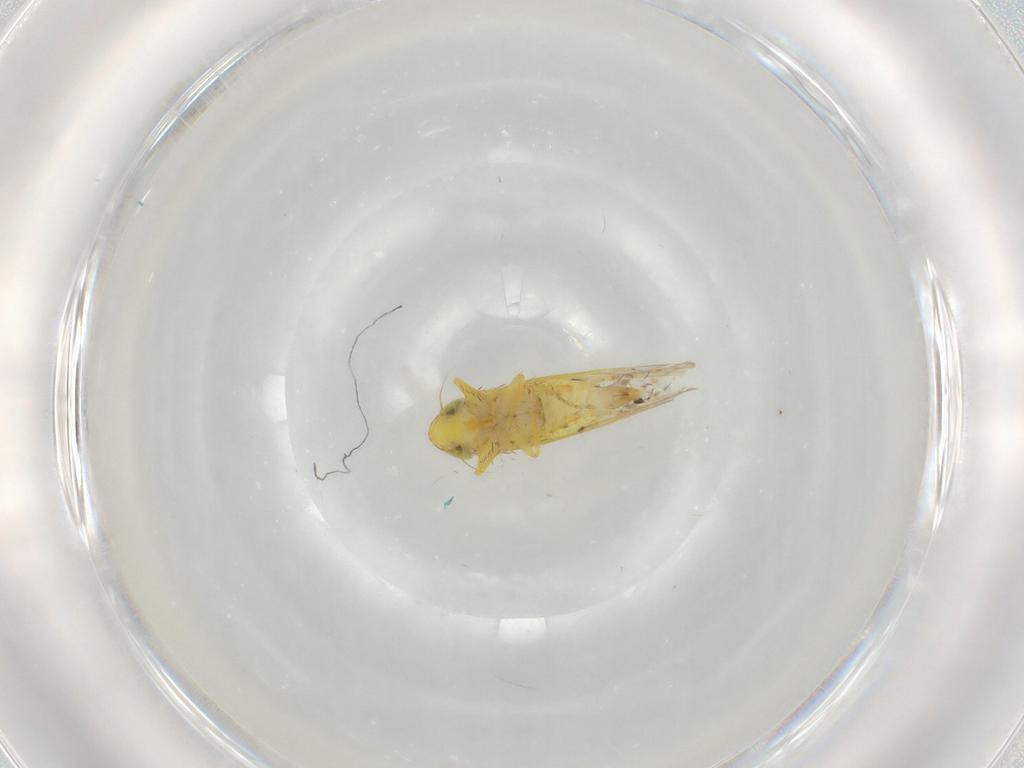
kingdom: Animalia
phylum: Arthropoda
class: Insecta
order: Hemiptera
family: Cicadellidae
